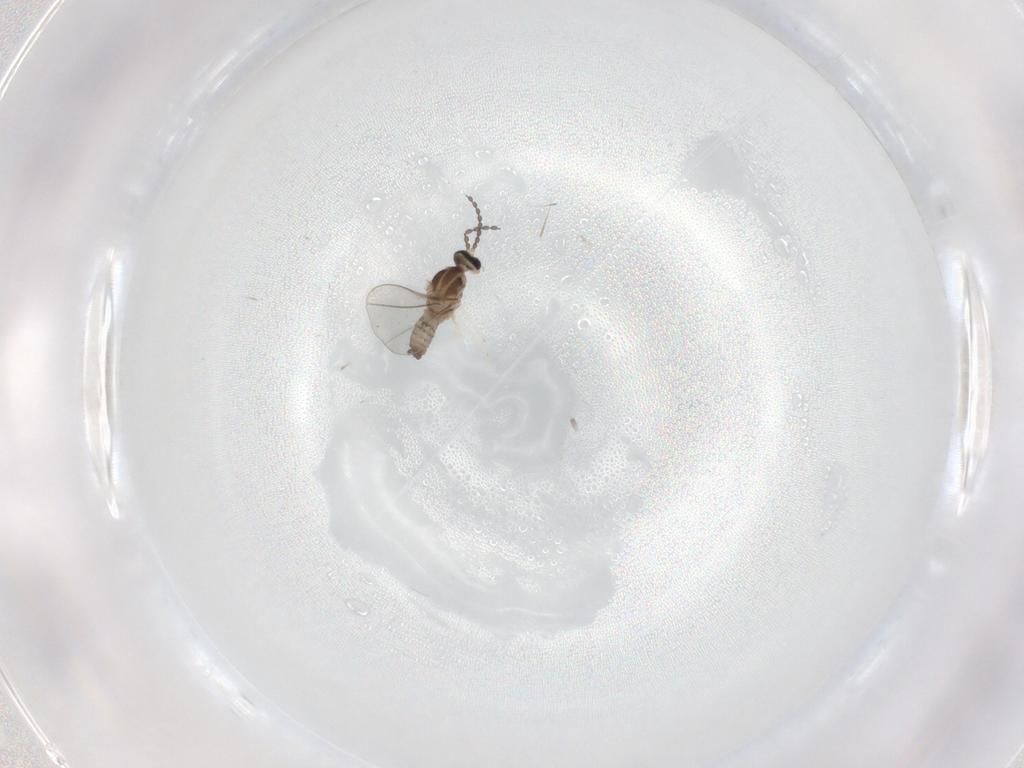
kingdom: Animalia
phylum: Arthropoda
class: Insecta
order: Diptera
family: Cecidomyiidae
